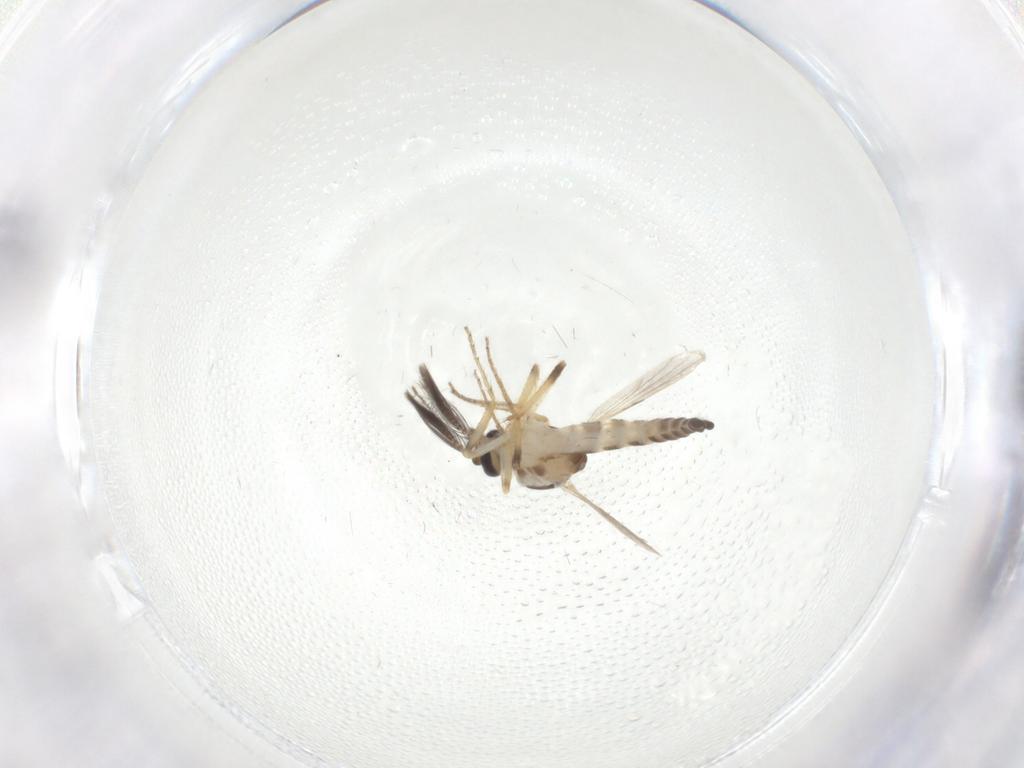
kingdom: Animalia
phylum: Arthropoda
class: Insecta
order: Diptera
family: Ceratopogonidae
